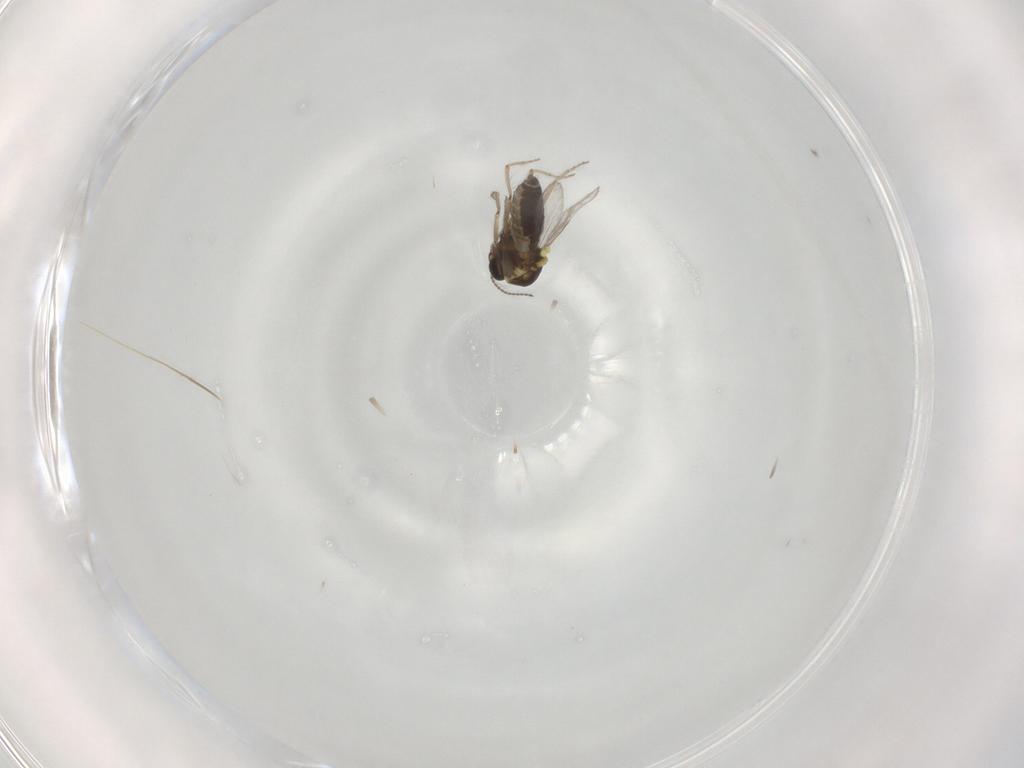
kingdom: Animalia
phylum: Arthropoda
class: Insecta
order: Diptera
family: Ceratopogonidae
